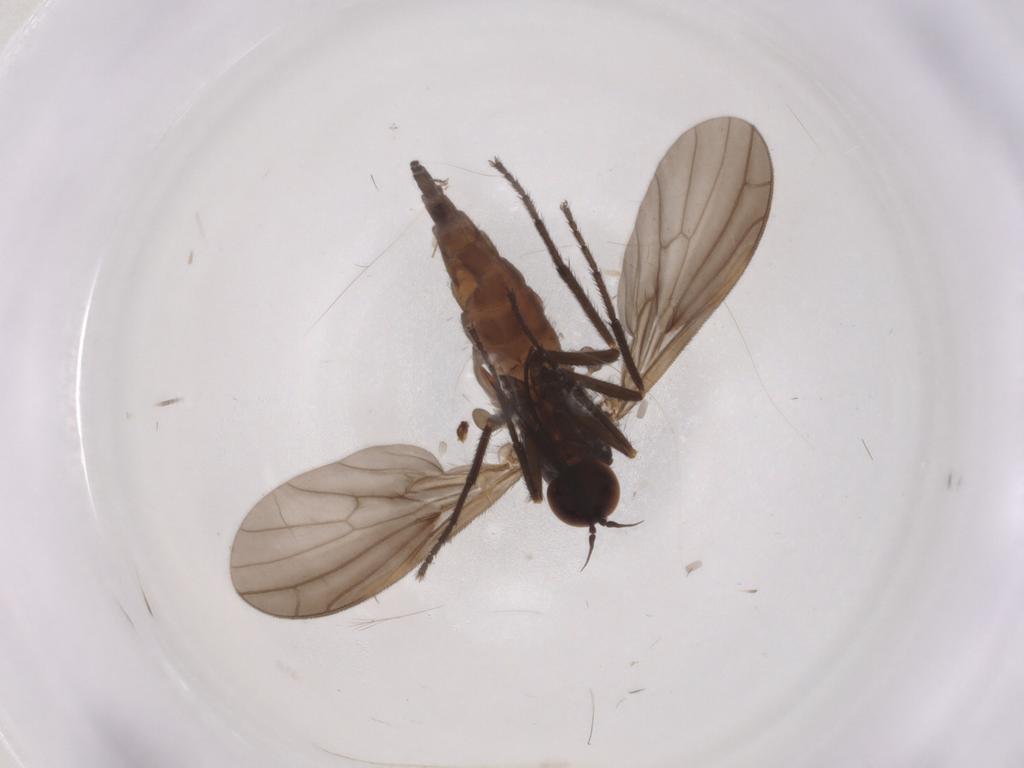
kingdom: Animalia
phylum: Arthropoda
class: Insecta
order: Diptera
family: Empididae
